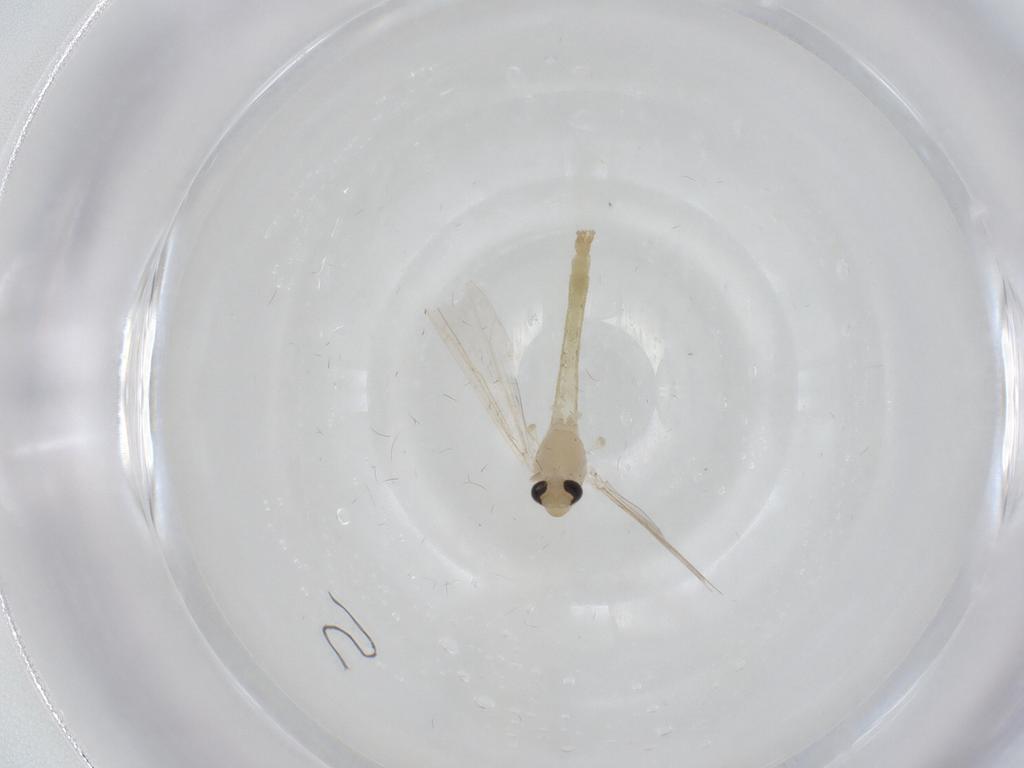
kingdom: Animalia
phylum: Arthropoda
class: Insecta
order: Diptera
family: Chironomidae
